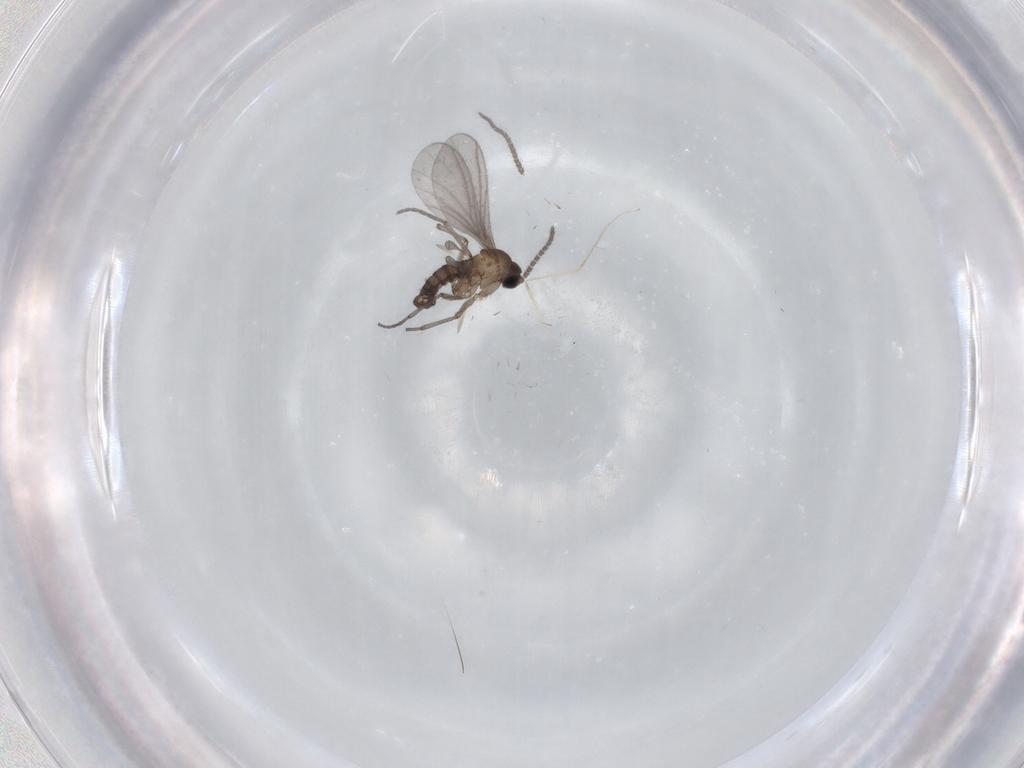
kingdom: Animalia
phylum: Arthropoda
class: Insecta
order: Diptera
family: Sciaridae
